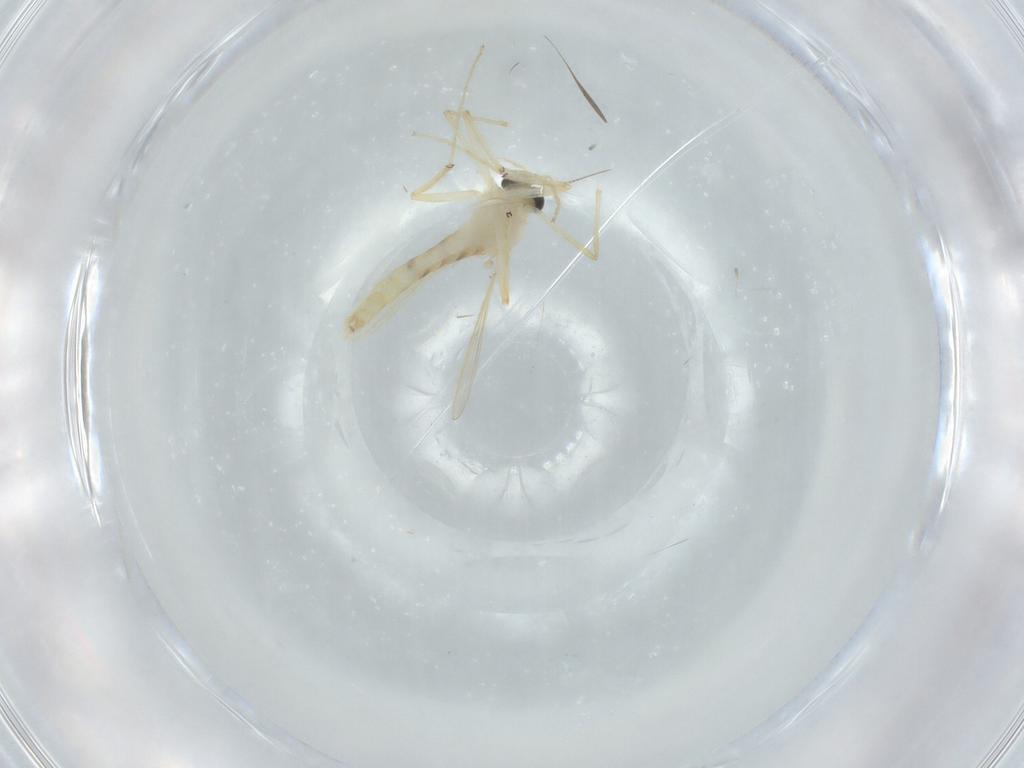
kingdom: Animalia
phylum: Arthropoda
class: Insecta
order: Diptera
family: Chironomidae
